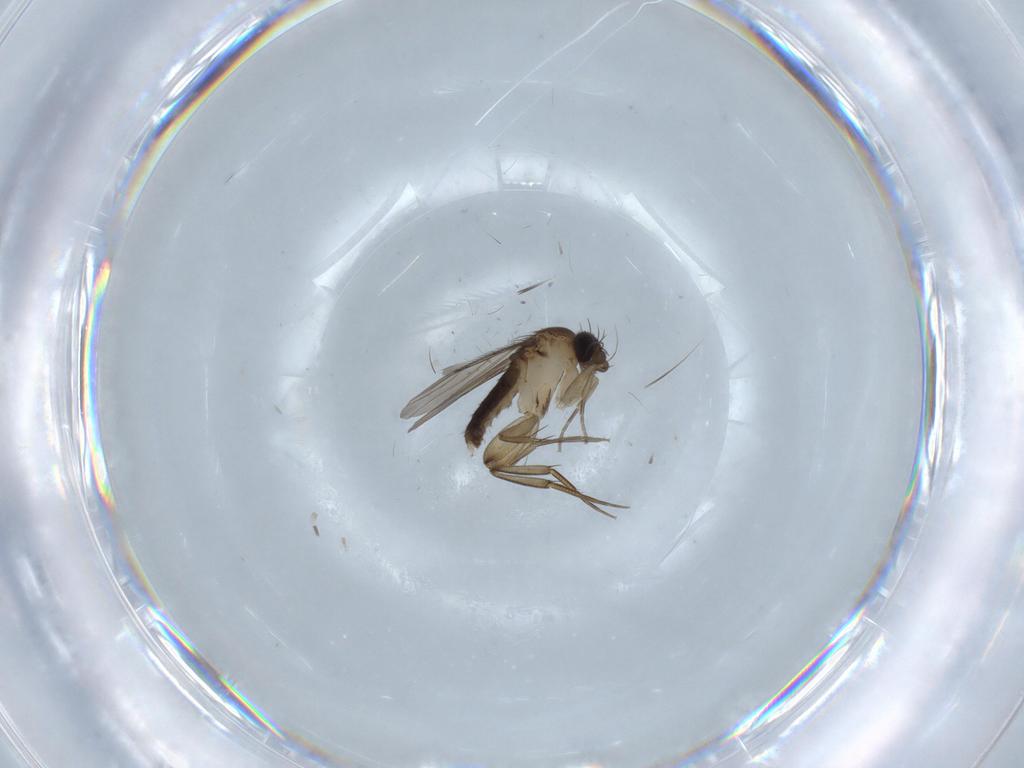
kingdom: Animalia
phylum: Arthropoda
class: Insecta
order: Diptera
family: Phoridae
